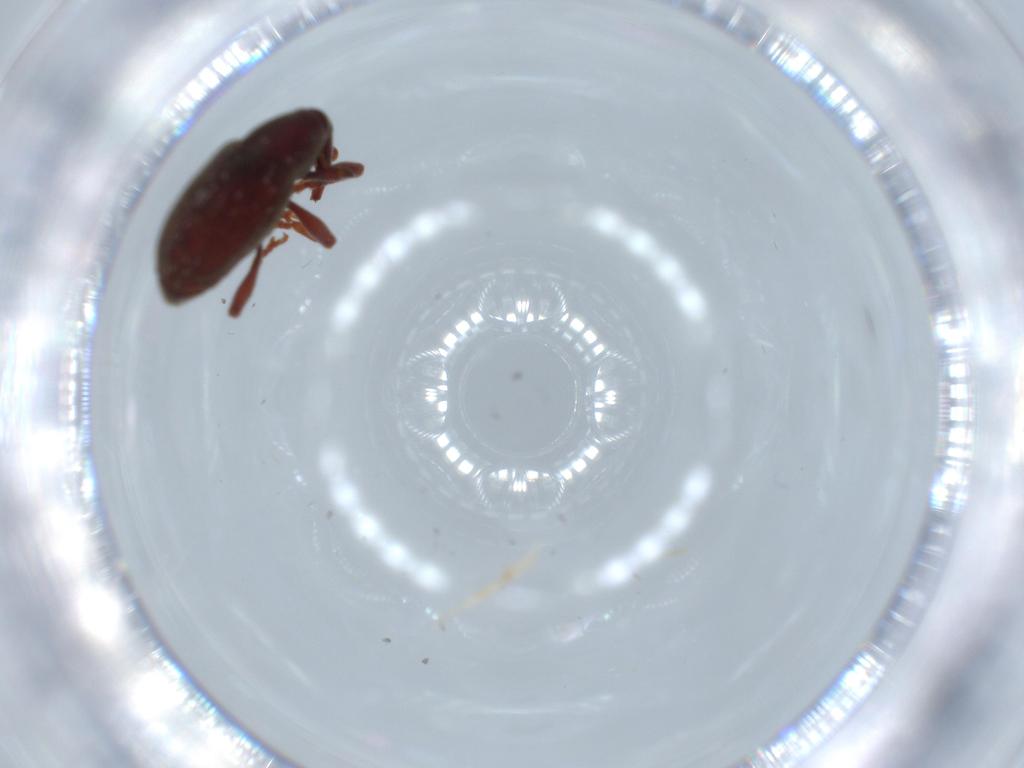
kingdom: Animalia
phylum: Arthropoda
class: Insecta
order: Coleoptera
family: Curculionidae
